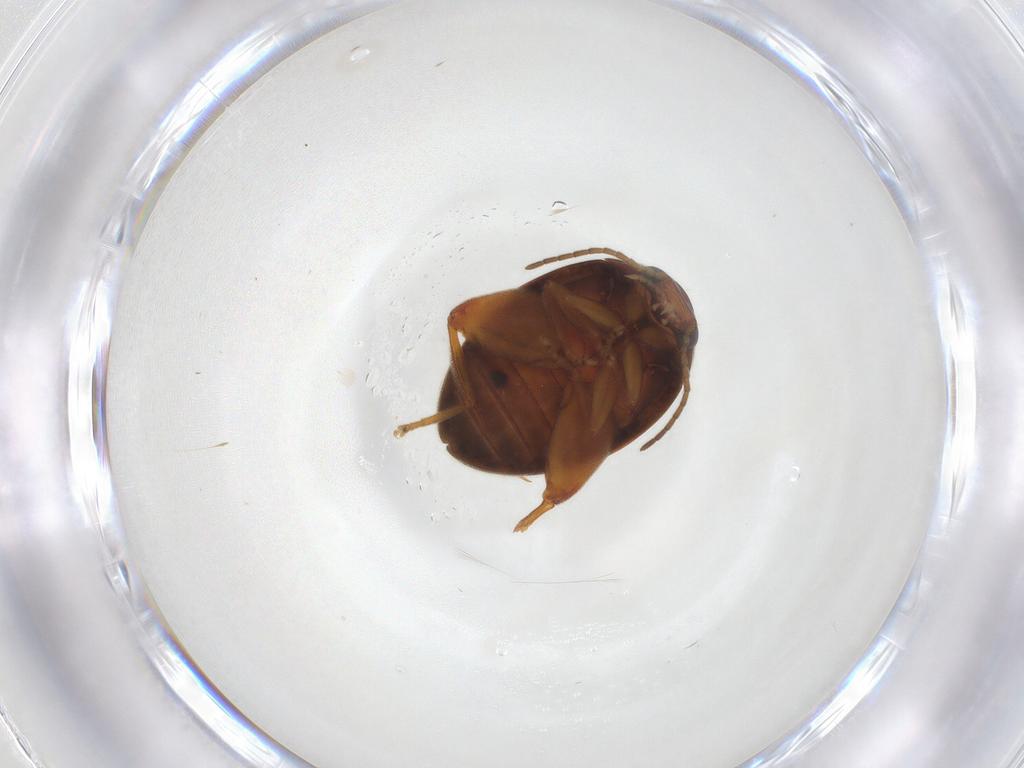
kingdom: Animalia
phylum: Arthropoda
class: Insecta
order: Coleoptera
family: Scirtidae
